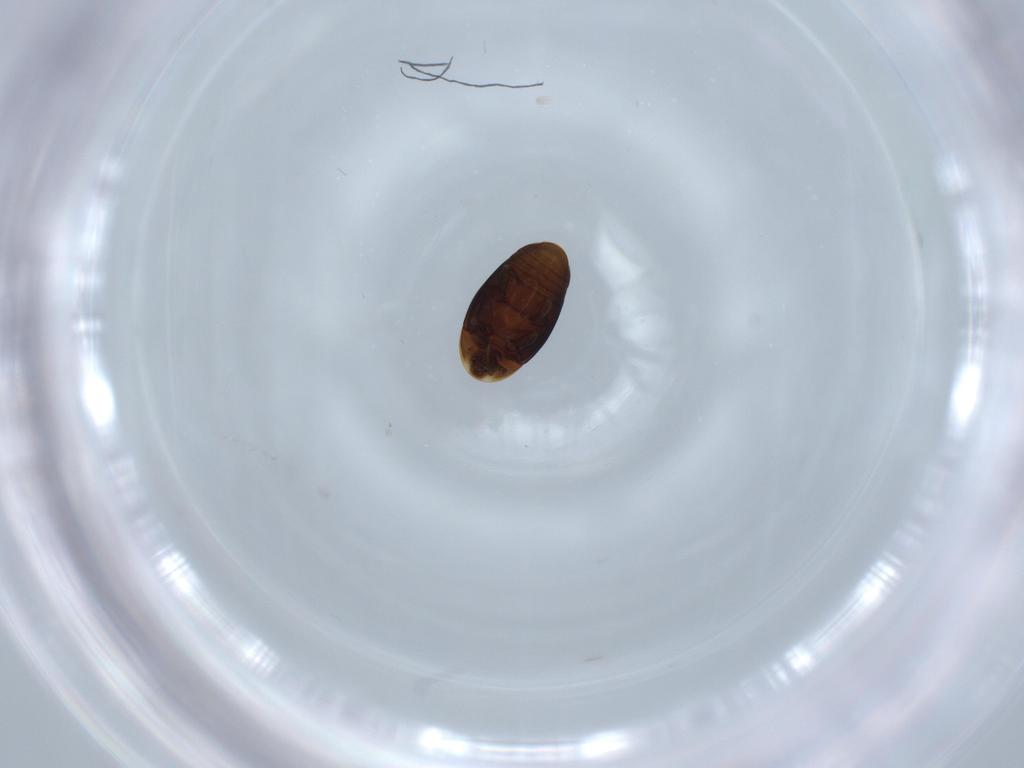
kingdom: Animalia
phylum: Arthropoda
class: Insecta
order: Coleoptera
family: Corylophidae
